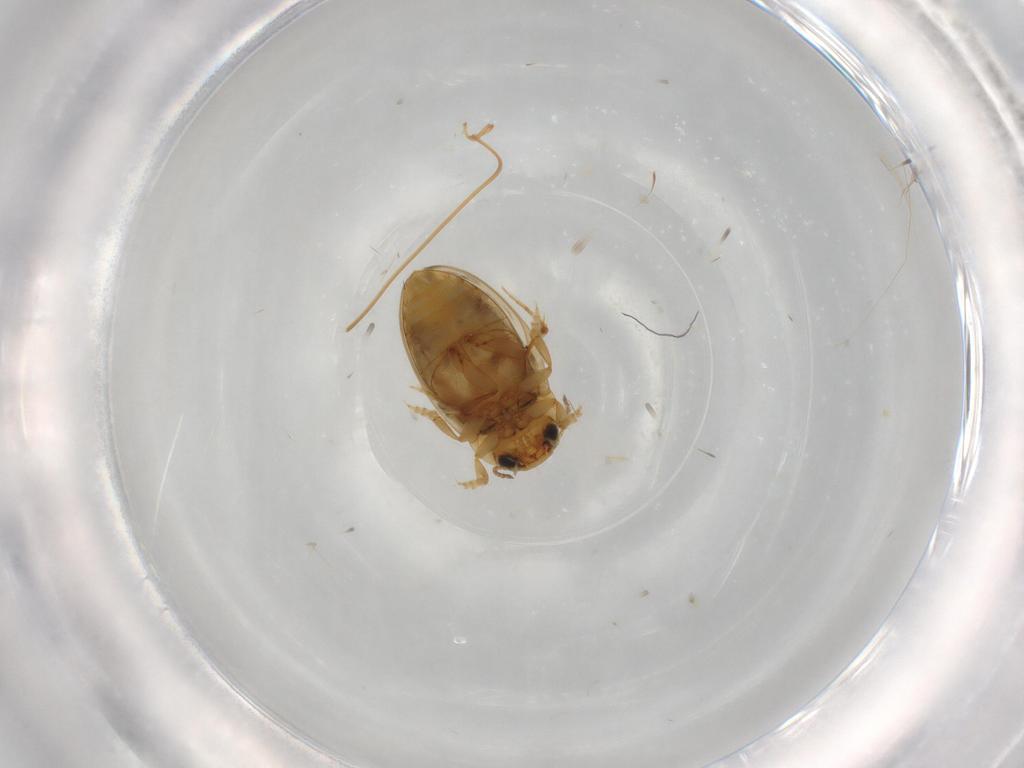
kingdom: Animalia
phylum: Arthropoda
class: Insecta
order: Coleoptera
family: Dytiscidae
